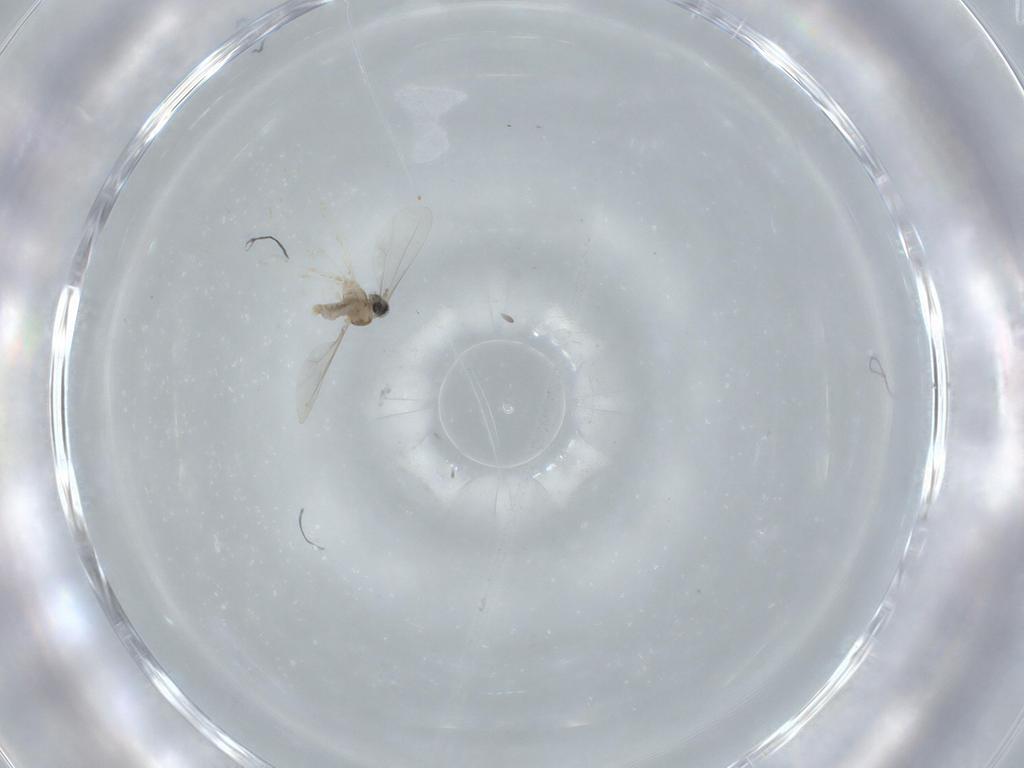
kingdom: Animalia
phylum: Arthropoda
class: Insecta
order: Diptera
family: Cecidomyiidae
